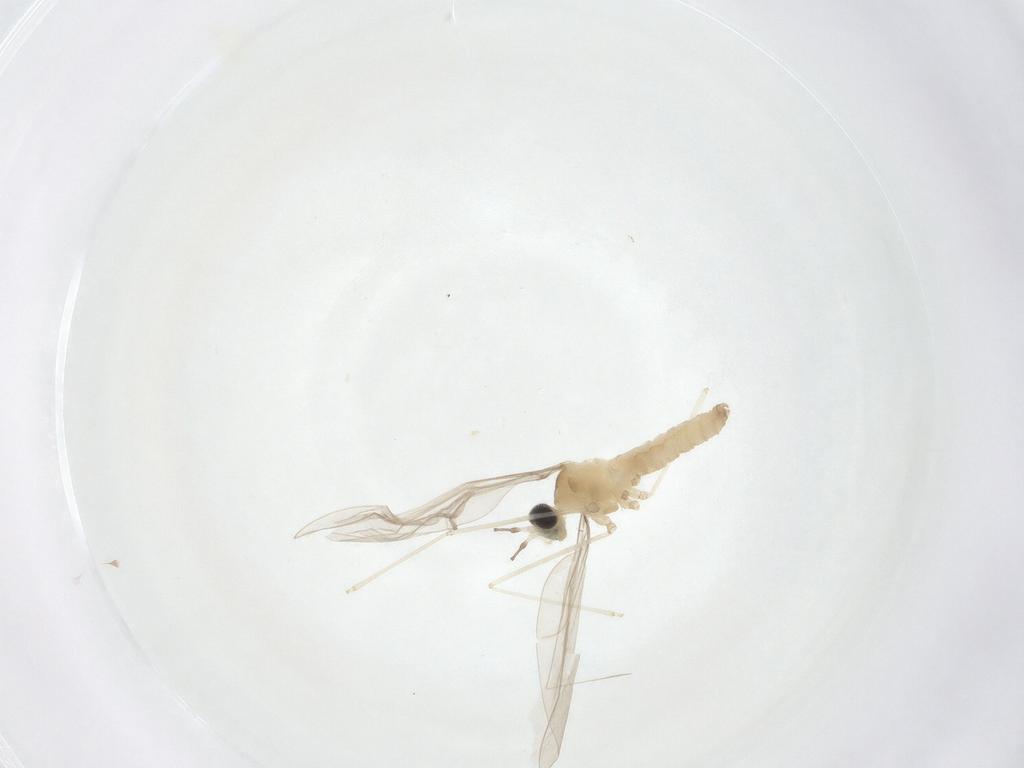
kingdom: Animalia
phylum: Arthropoda
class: Insecta
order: Diptera
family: Cecidomyiidae
